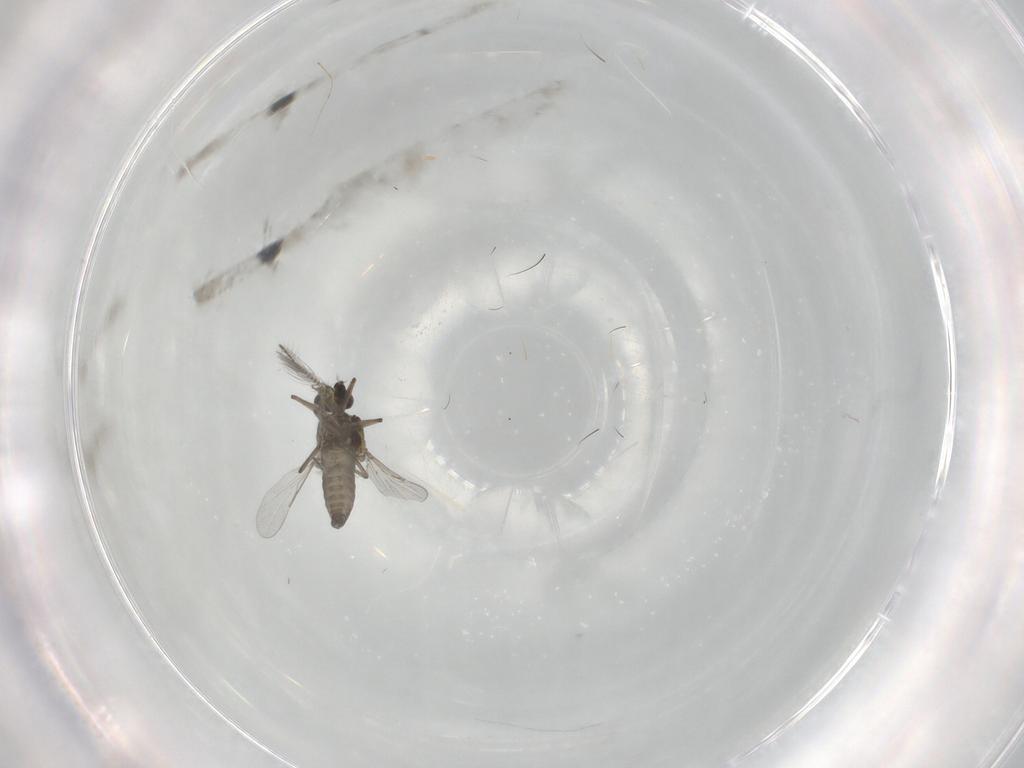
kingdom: Animalia
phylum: Arthropoda
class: Insecta
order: Diptera
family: Ceratopogonidae
